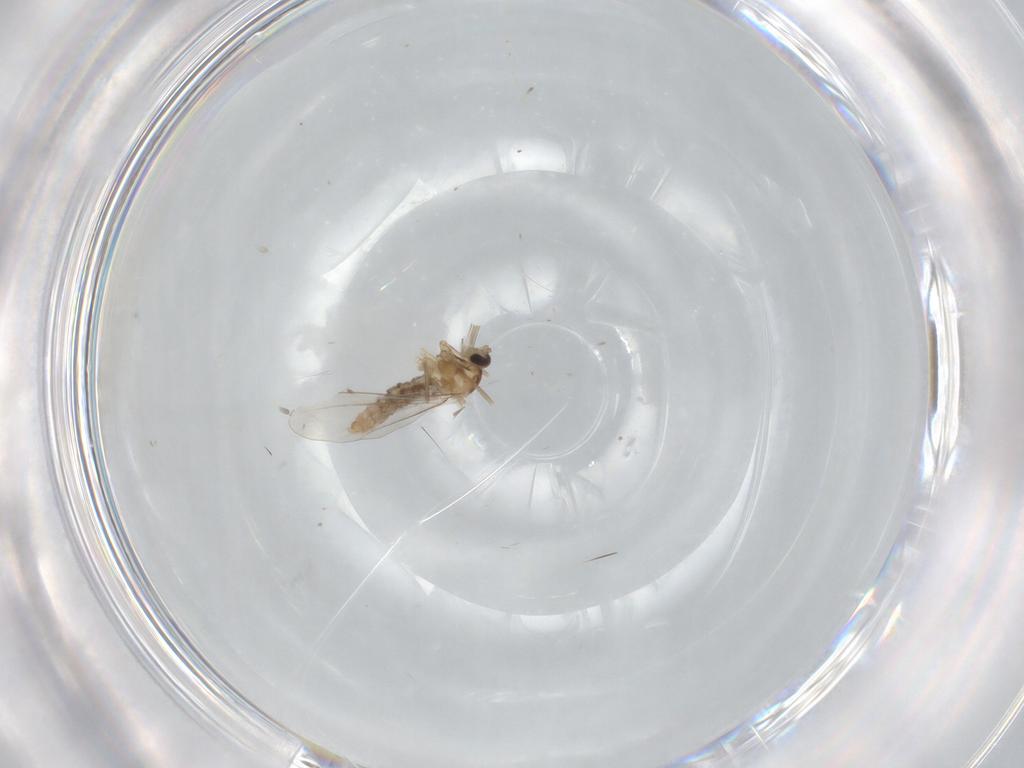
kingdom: Animalia
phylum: Arthropoda
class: Insecta
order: Diptera
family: Cecidomyiidae
